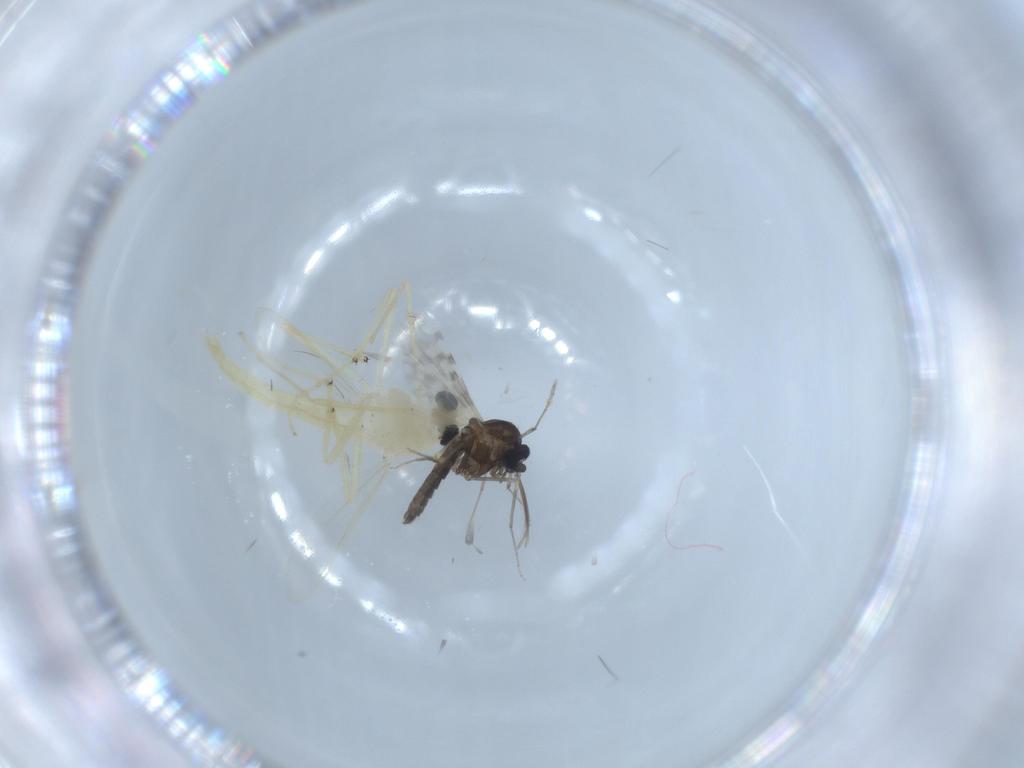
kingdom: Animalia
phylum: Arthropoda
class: Insecta
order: Diptera
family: Chironomidae
